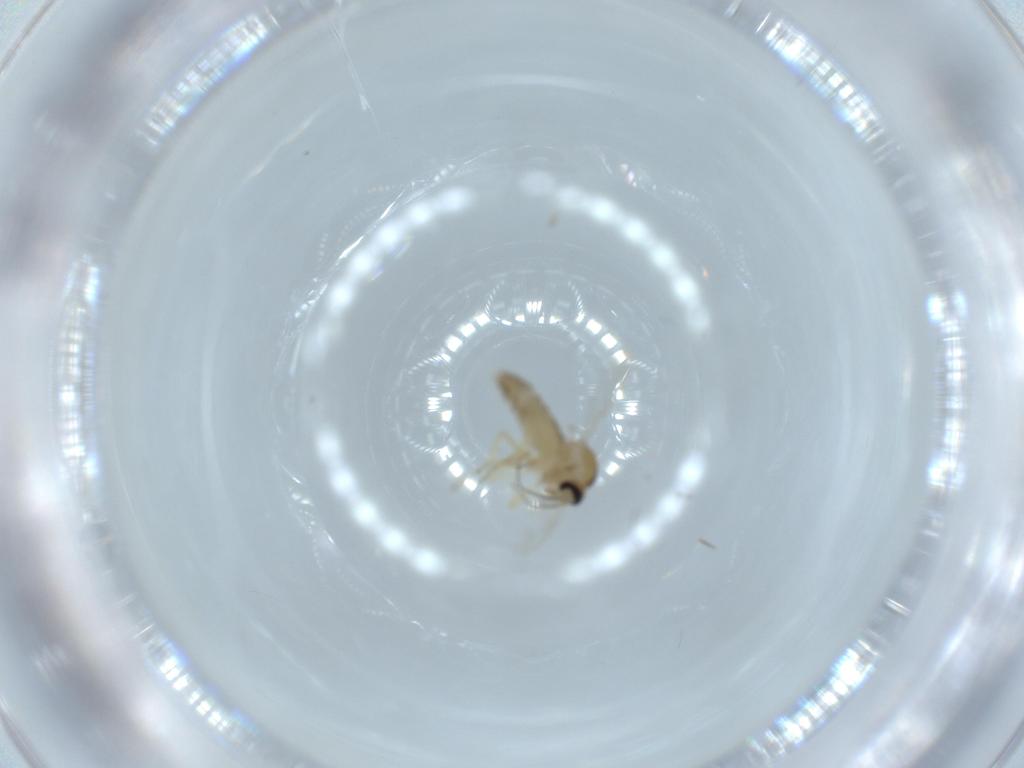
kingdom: Animalia
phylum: Arthropoda
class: Insecta
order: Diptera
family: Ceratopogonidae
